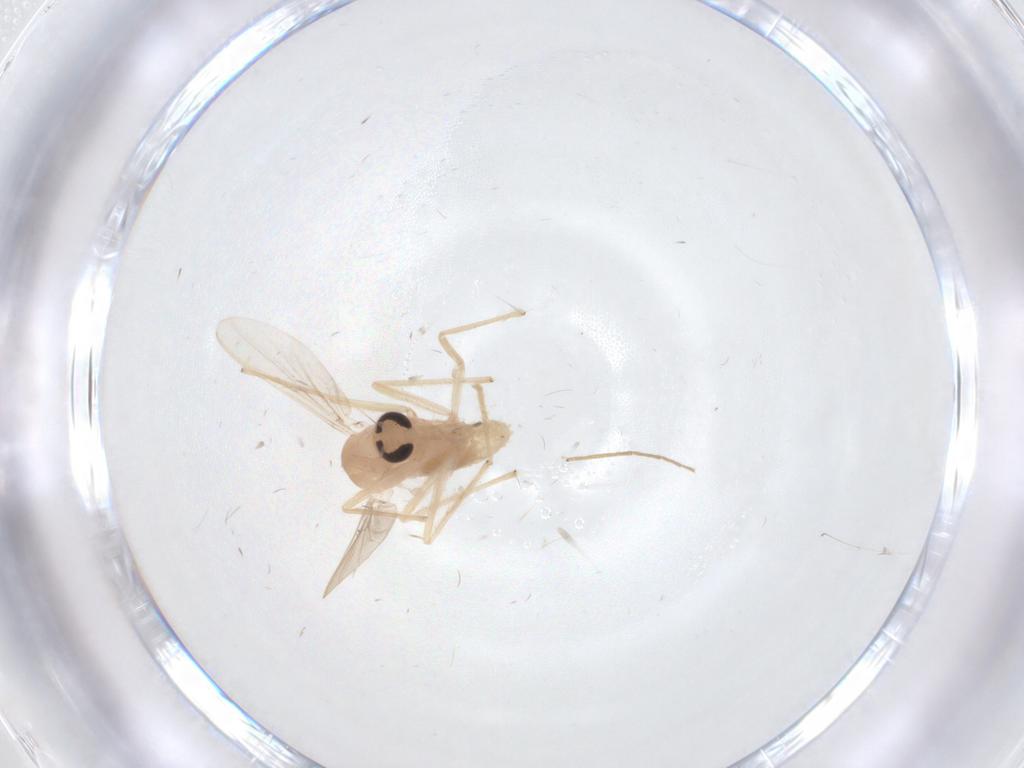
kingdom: Animalia
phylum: Arthropoda
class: Insecta
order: Diptera
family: Chironomidae
